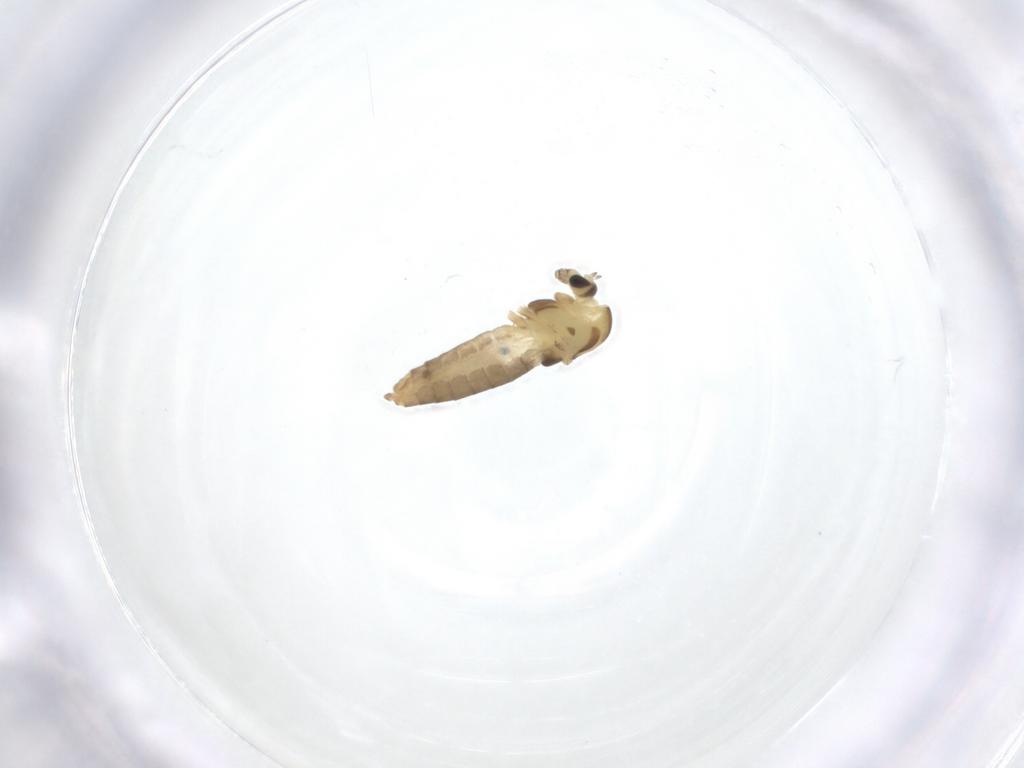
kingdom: Animalia
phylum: Arthropoda
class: Insecta
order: Diptera
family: Chironomidae
